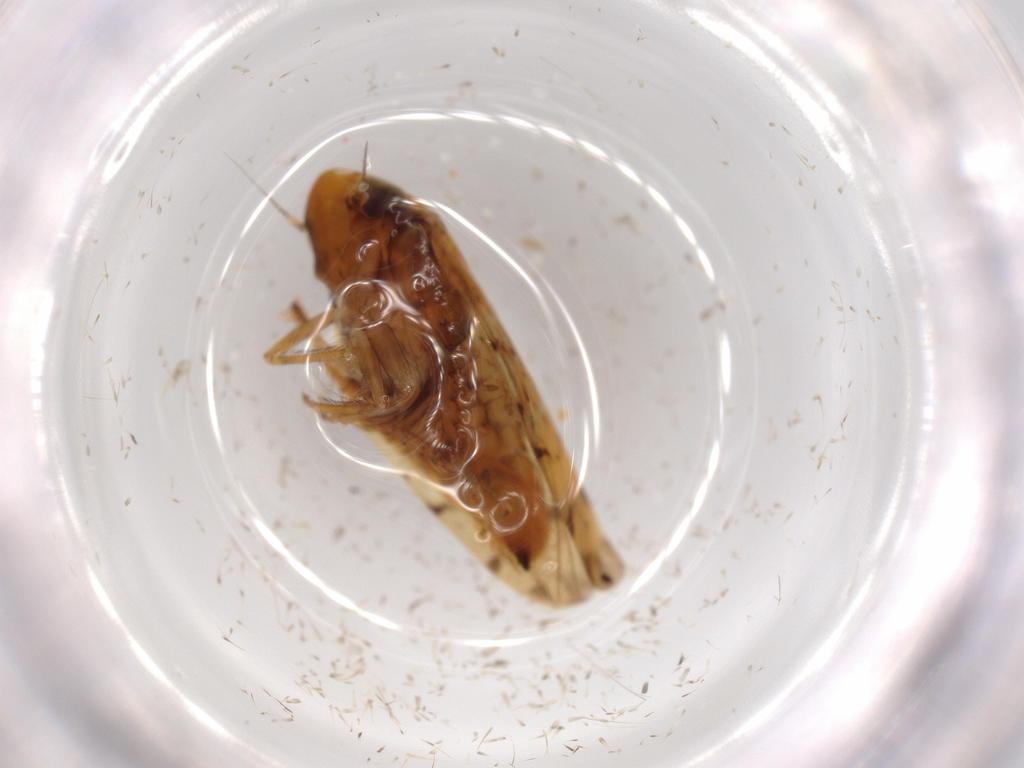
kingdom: Animalia
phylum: Arthropoda
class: Insecta
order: Hemiptera
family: Cicadellidae
